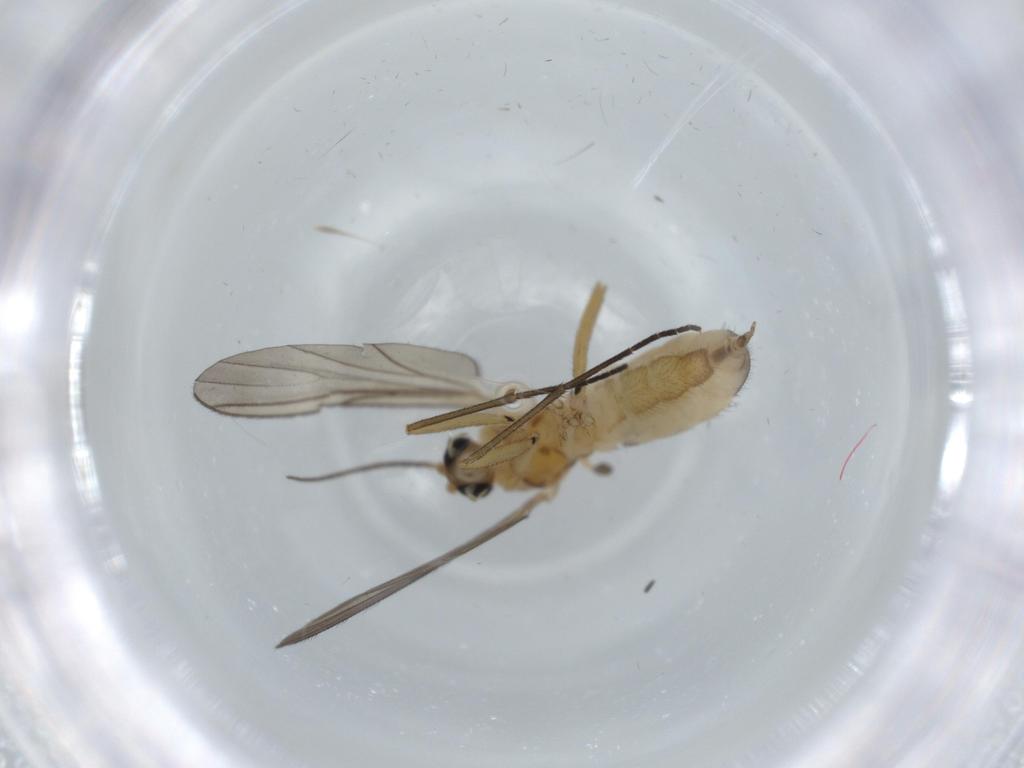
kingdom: Animalia
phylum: Arthropoda
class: Insecta
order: Diptera
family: Sciaridae
